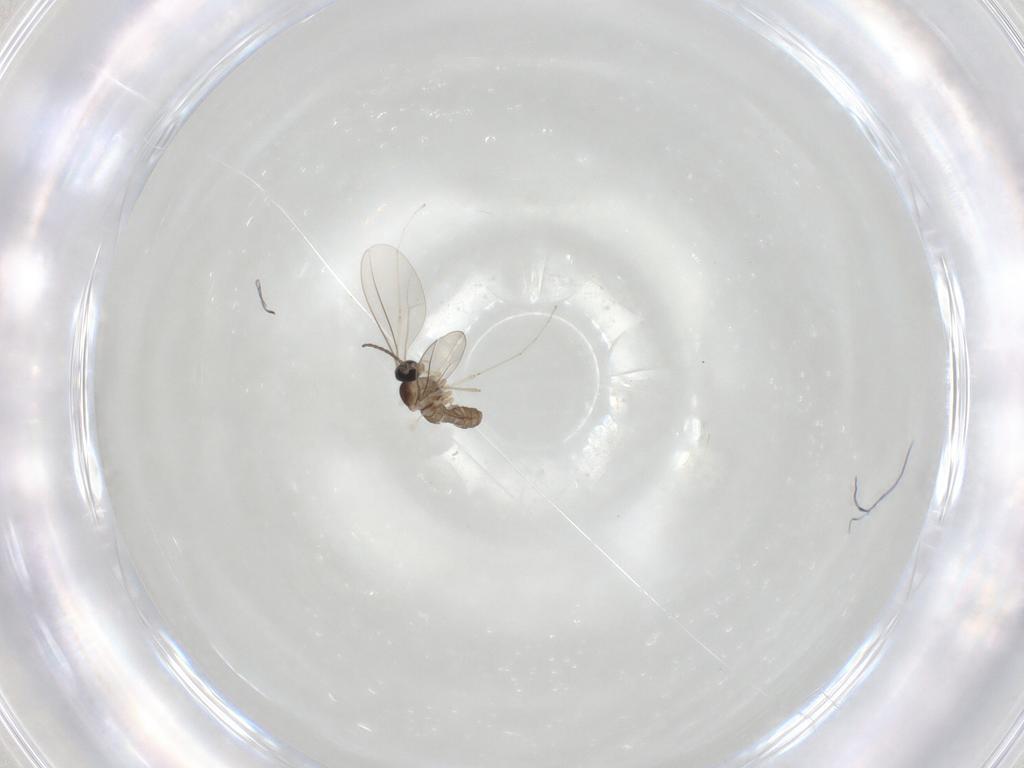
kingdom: Animalia
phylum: Arthropoda
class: Insecta
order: Diptera
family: Cecidomyiidae
